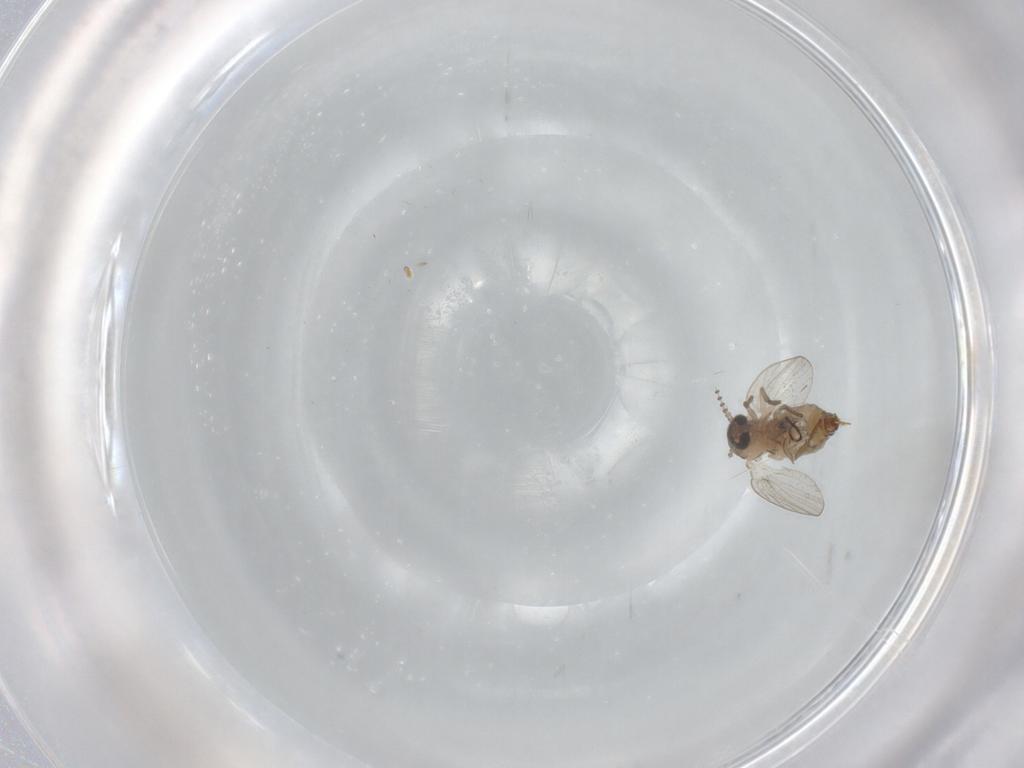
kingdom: Animalia
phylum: Arthropoda
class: Insecta
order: Diptera
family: Psychodidae
